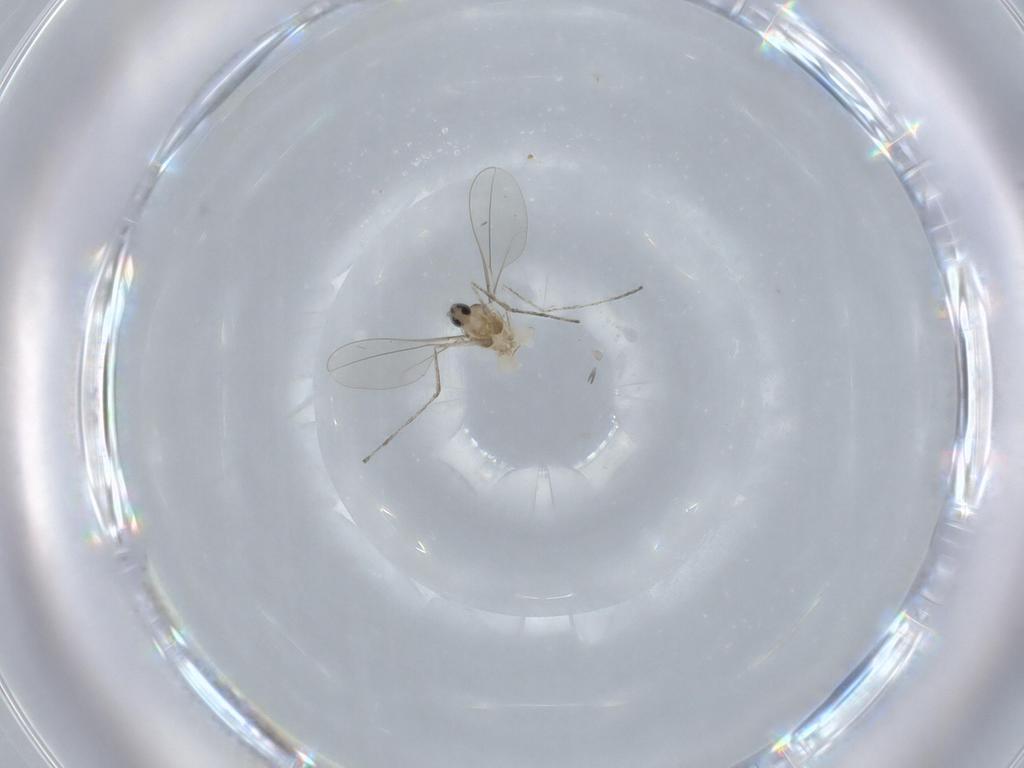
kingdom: Animalia
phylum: Arthropoda
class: Insecta
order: Diptera
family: Cecidomyiidae
